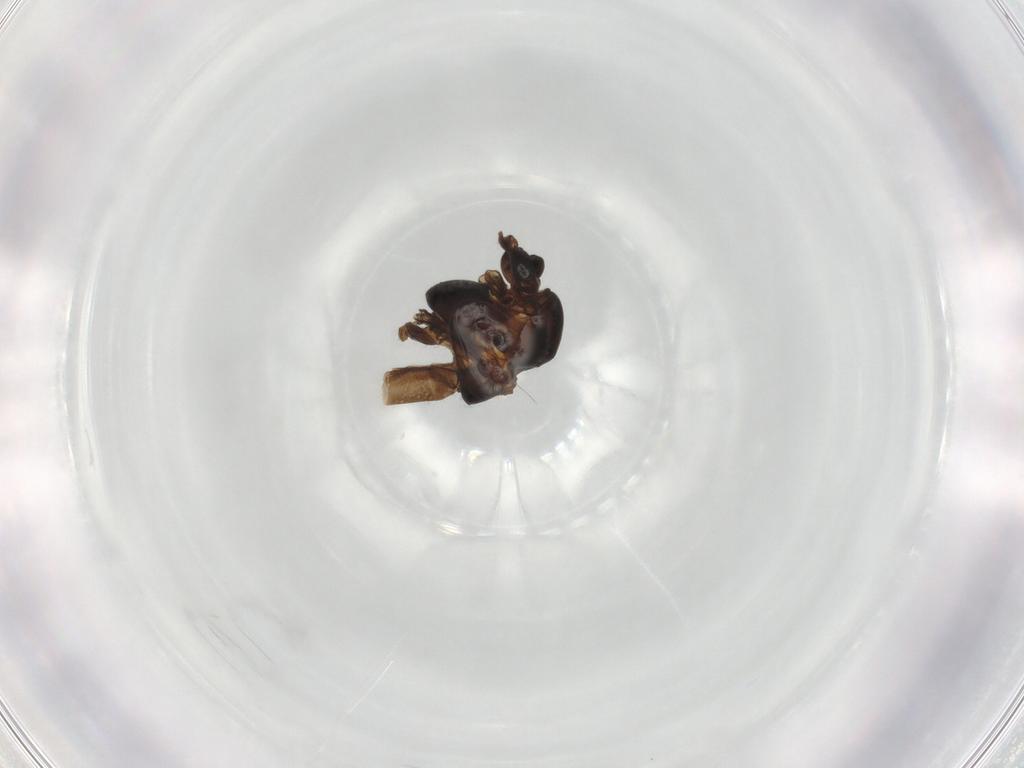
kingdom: Animalia
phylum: Arthropoda
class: Insecta
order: Diptera
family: Chironomidae
